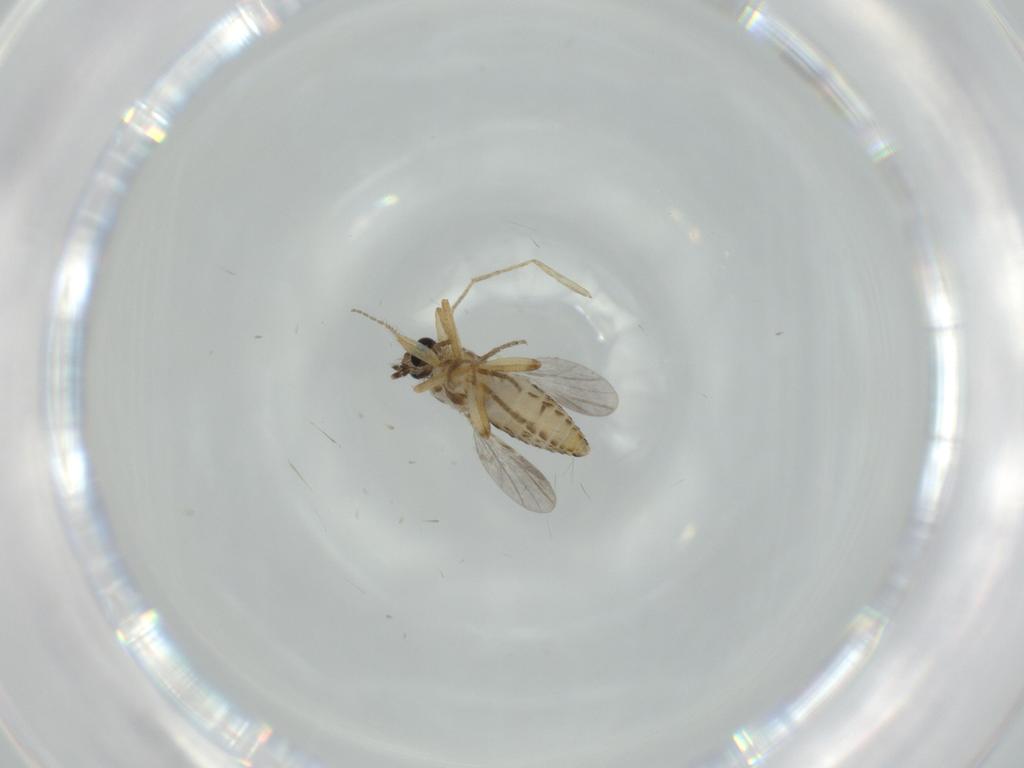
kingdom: Animalia
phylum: Arthropoda
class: Insecta
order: Diptera
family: Ceratopogonidae
